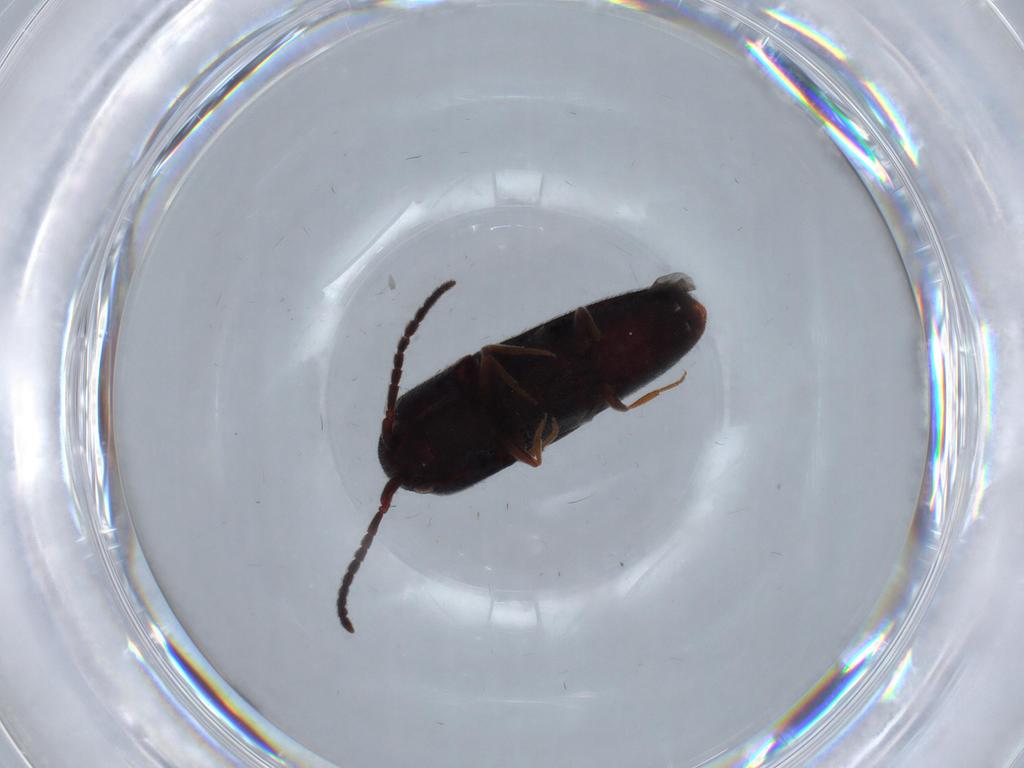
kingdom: Animalia
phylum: Arthropoda
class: Insecta
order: Coleoptera
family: Eucnemidae
